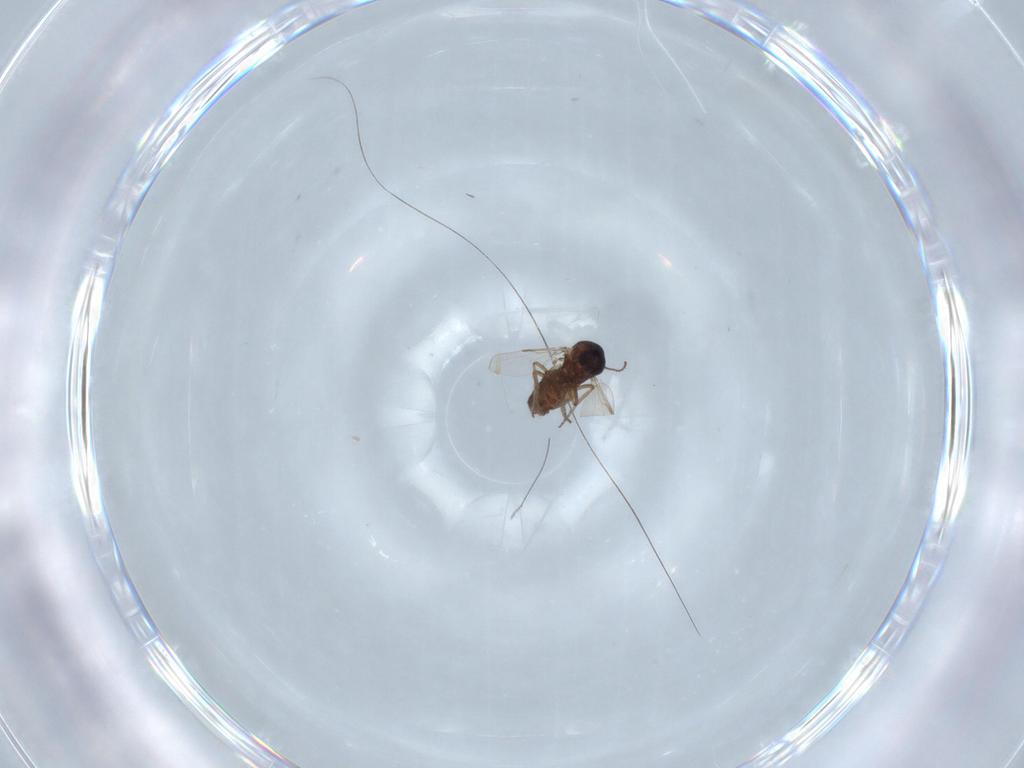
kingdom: Animalia
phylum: Arthropoda
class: Insecta
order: Diptera
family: Ceratopogonidae
